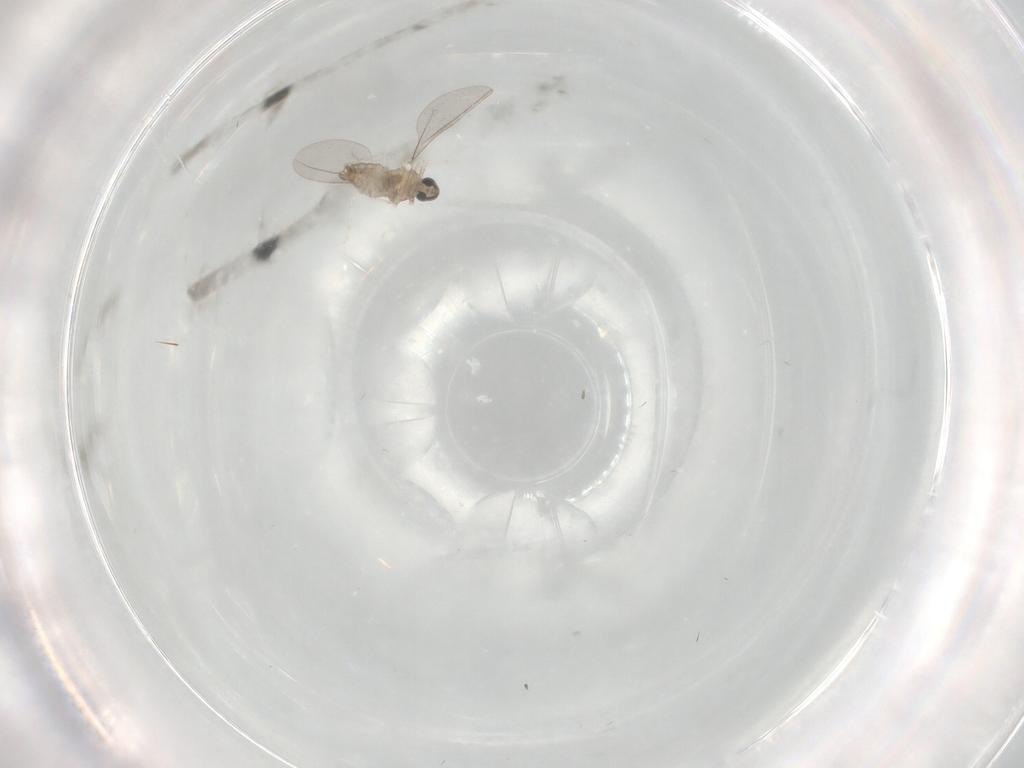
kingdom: Animalia
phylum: Arthropoda
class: Insecta
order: Diptera
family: Cecidomyiidae
